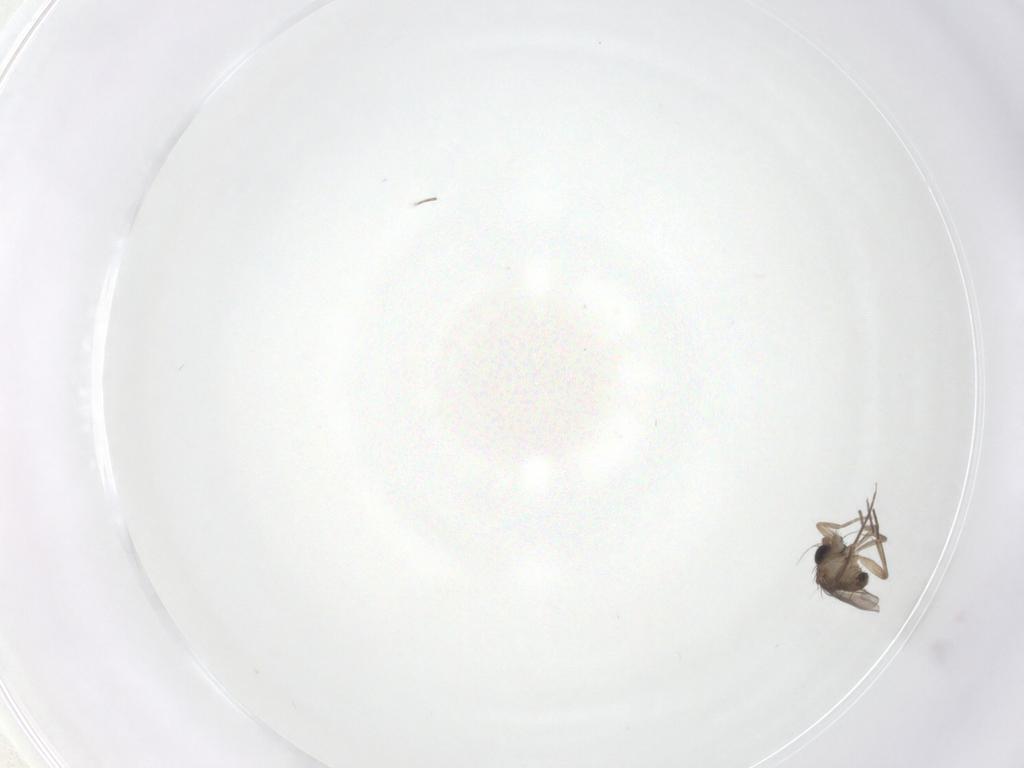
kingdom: Animalia
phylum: Arthropoda
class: Insecta
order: Diptera
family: Phoridae
